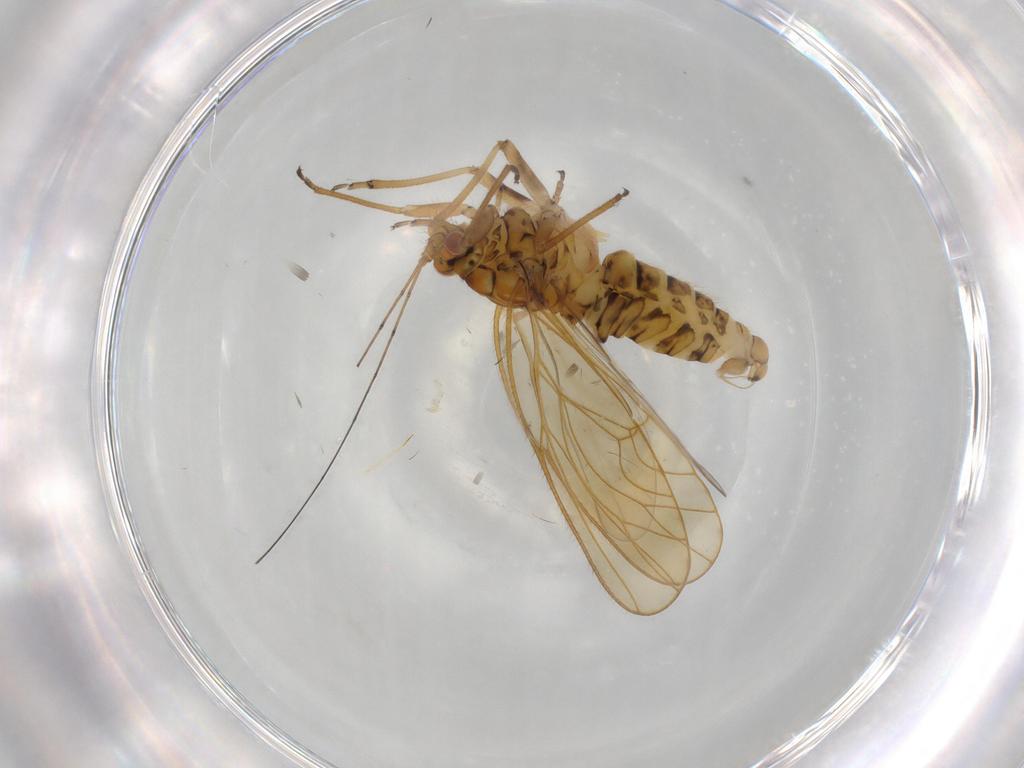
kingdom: Animalia
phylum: Arthropoda
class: Insecta
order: Hemiptera
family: Psyllidae
